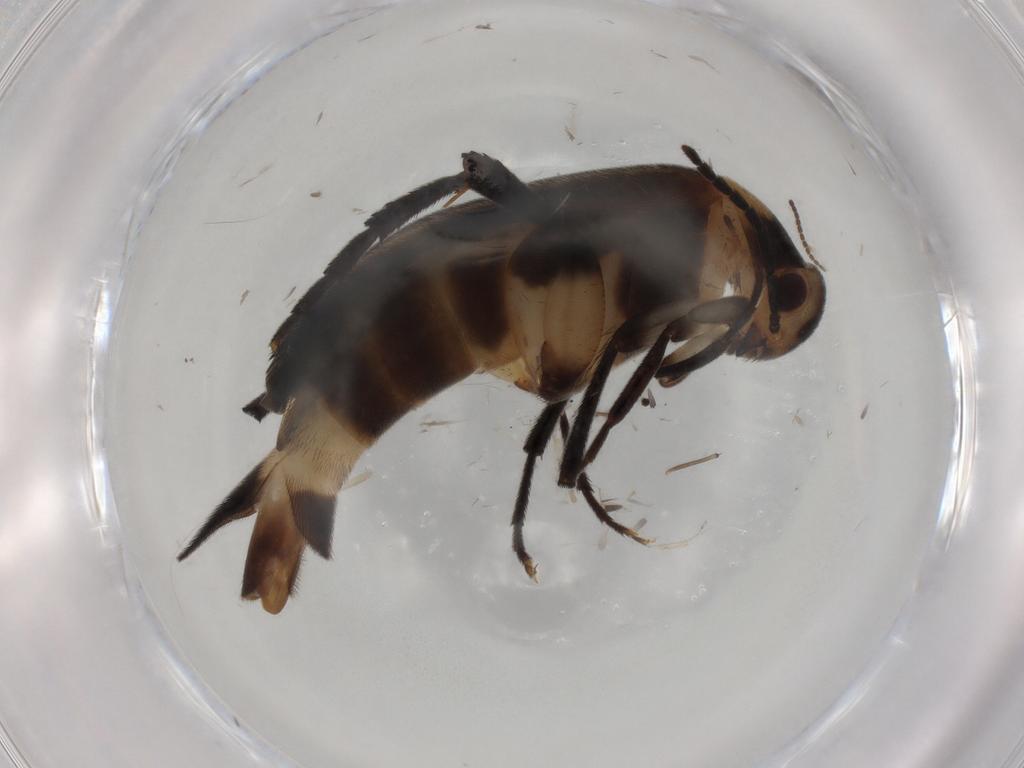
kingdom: Animalia
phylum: Arthropoda
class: Insecta
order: Coleoptera
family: Mordellidae
